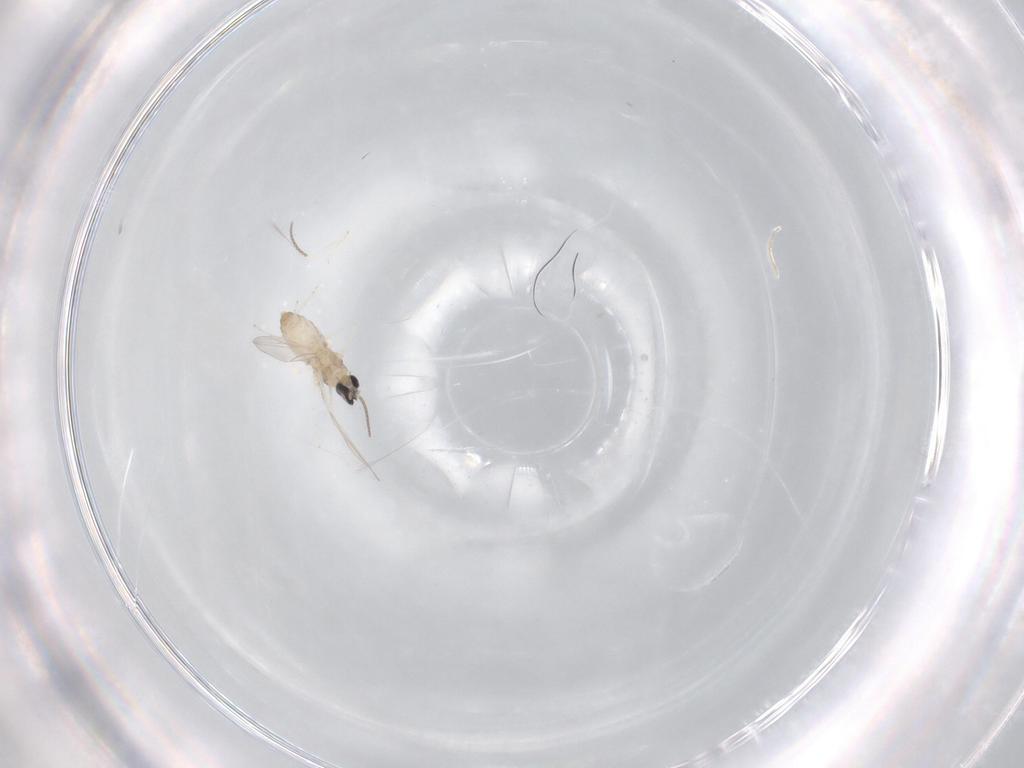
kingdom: Animalia
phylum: Arthropoda
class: Insecta
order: Diptera
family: Cecidomyiidae
